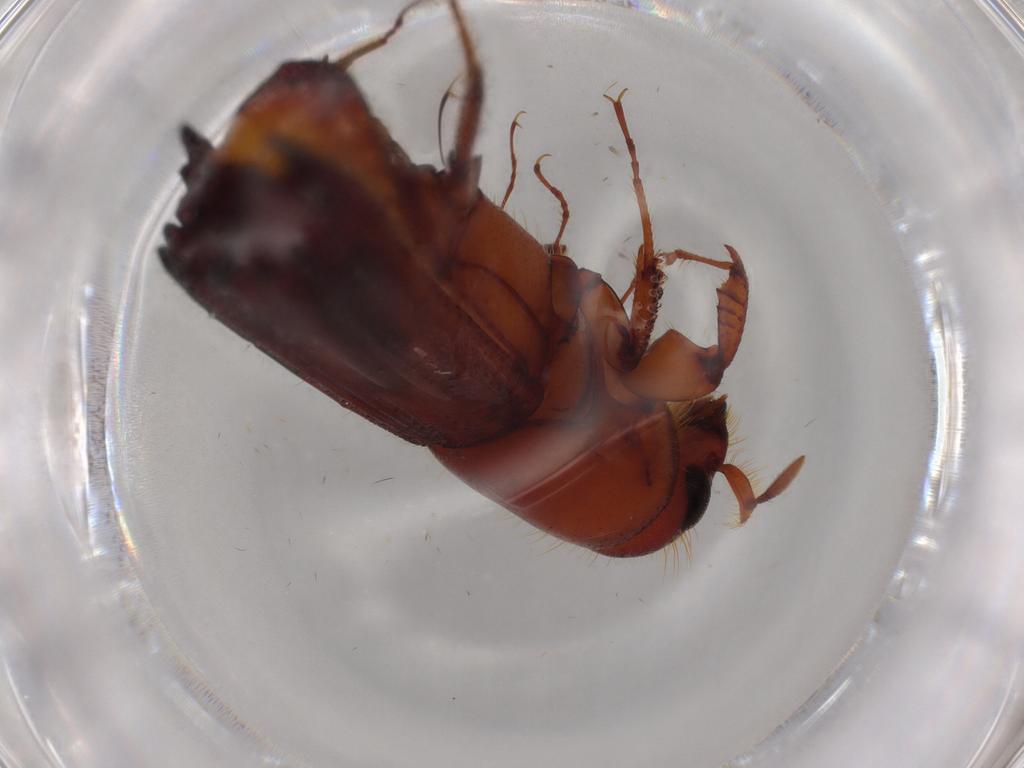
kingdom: Animalia
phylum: Arthropoda
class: Insecta
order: Coleoptera
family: Curculionidae
